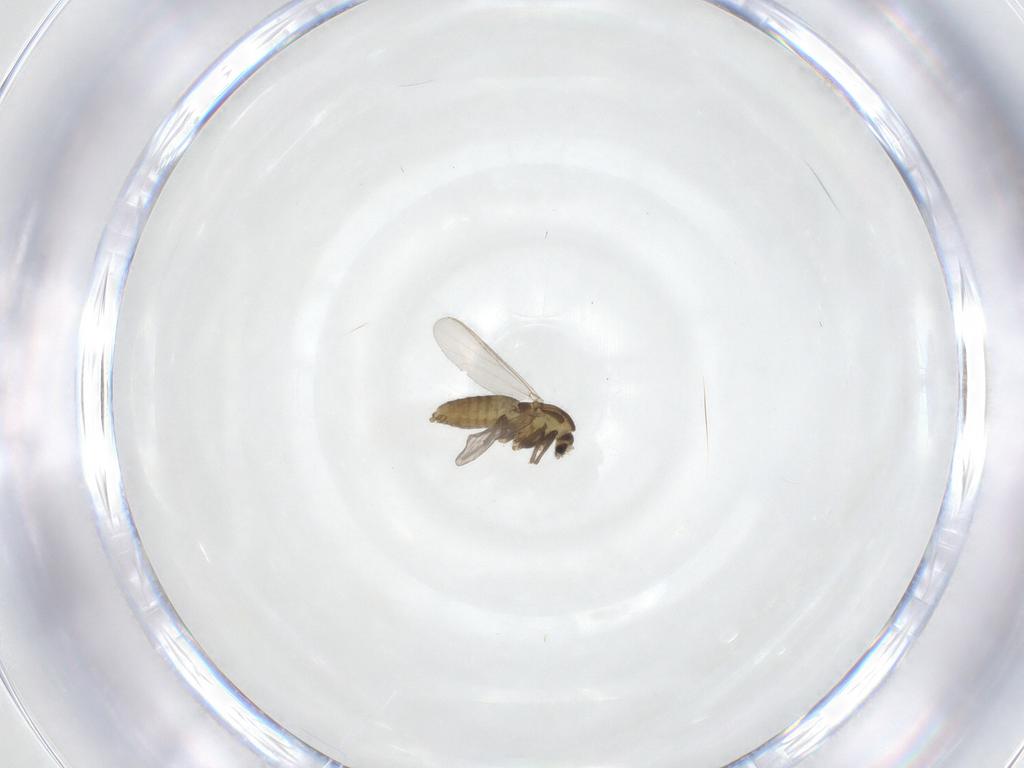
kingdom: Animalia
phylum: Arthropoda
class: Insecta
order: Diptera
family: Chironomidae
